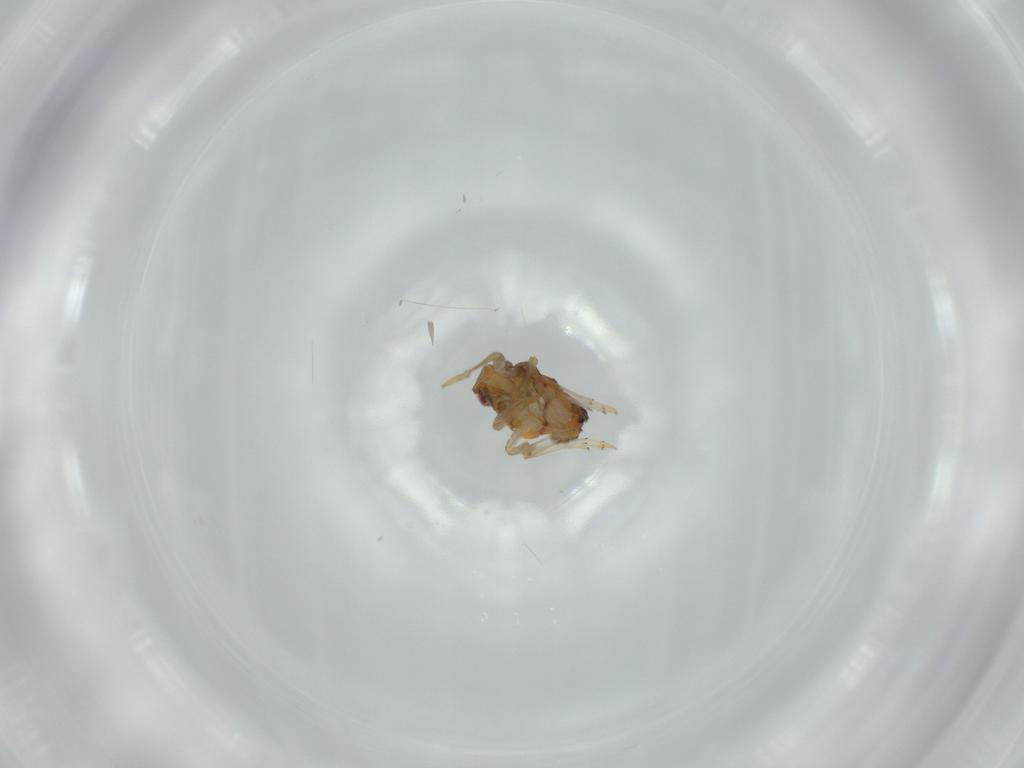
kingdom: Animalia
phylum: Arthropoda
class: Insecta
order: Hemiptera
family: Issidae
